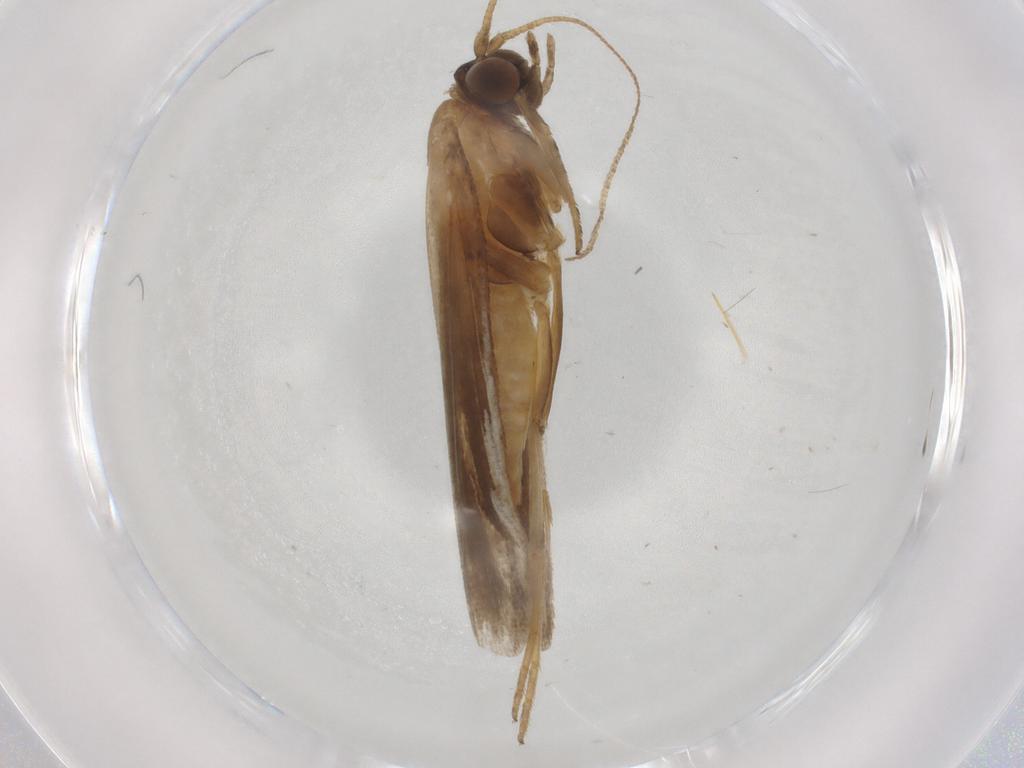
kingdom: Animalia
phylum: Arthropoda
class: Insecta
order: Lepidoptera
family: Noctuidae
